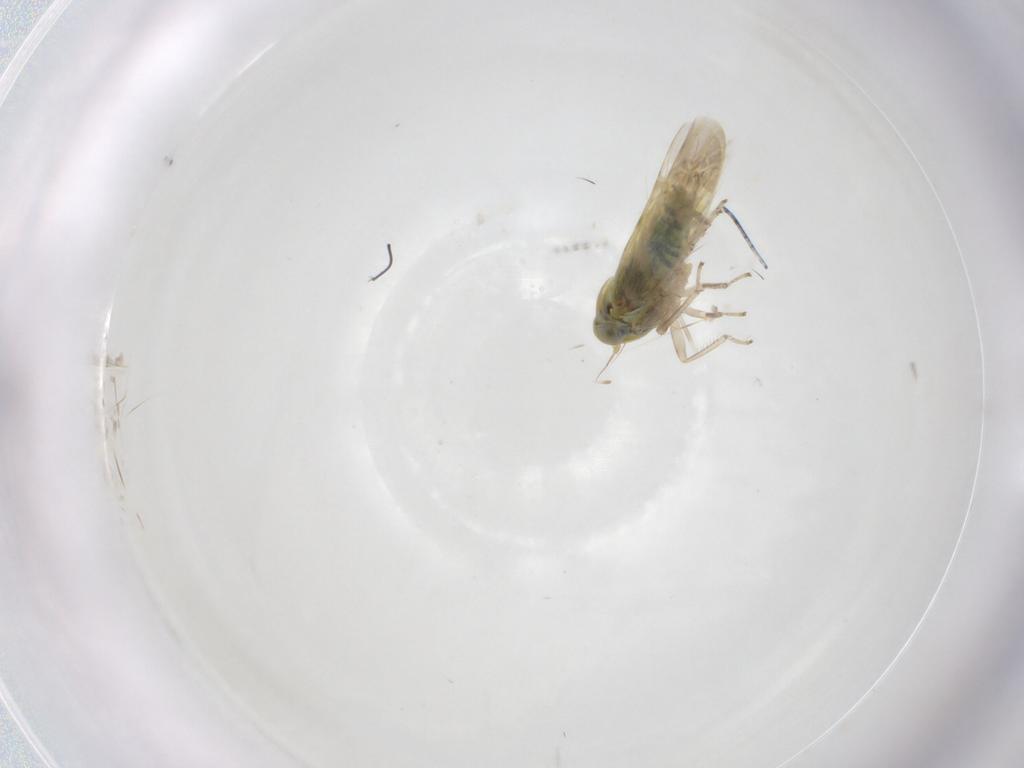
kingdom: Animalia
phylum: Arthropoda
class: Insecta
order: Hemiptera
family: Cicadellidae
